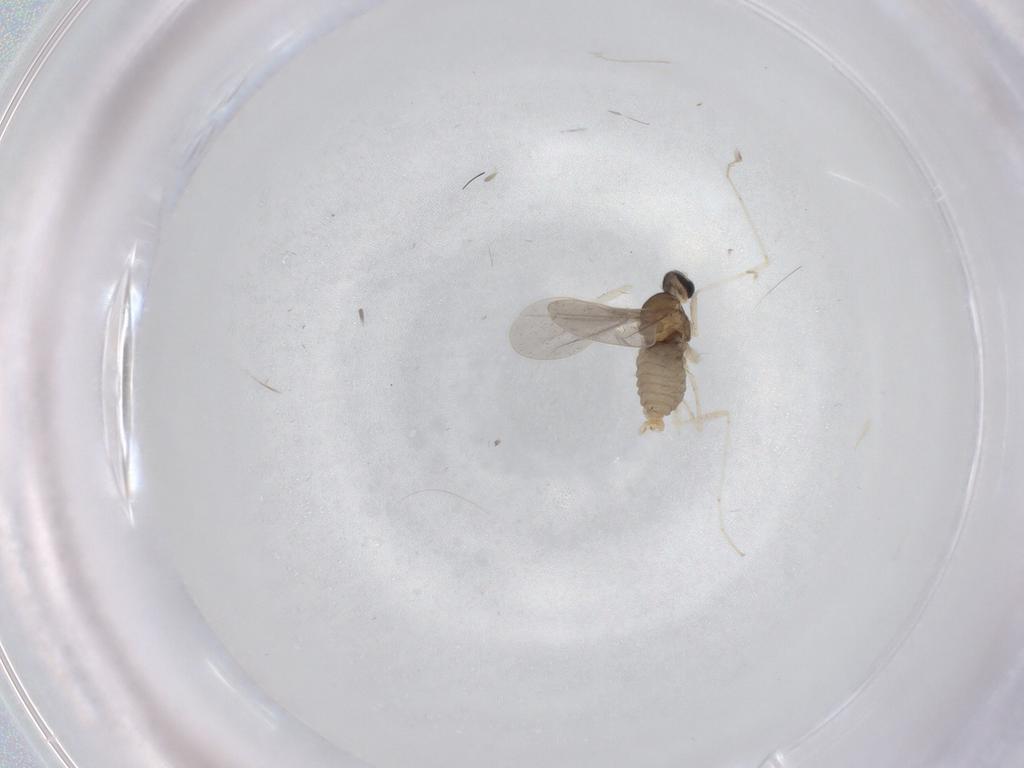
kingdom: Animalia
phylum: Arthropoda
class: Insecta
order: Diptera
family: Cecidomyiidae
